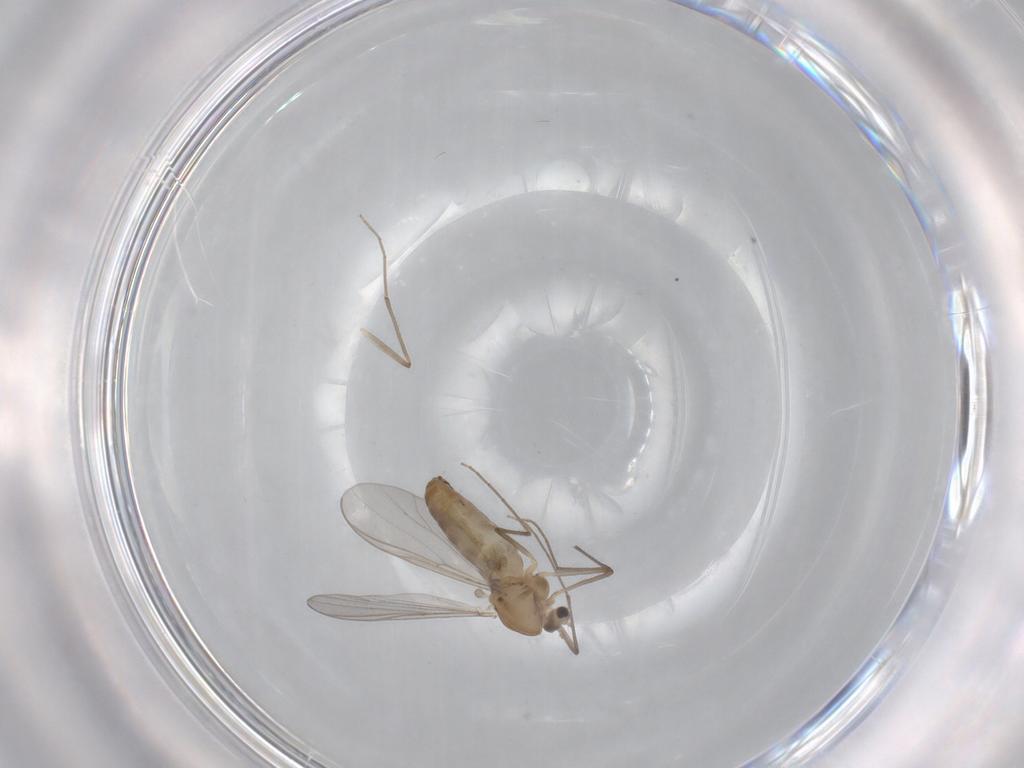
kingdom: Animalia
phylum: Arthropoda
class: Insecta
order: Diptera
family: Chironomidae
